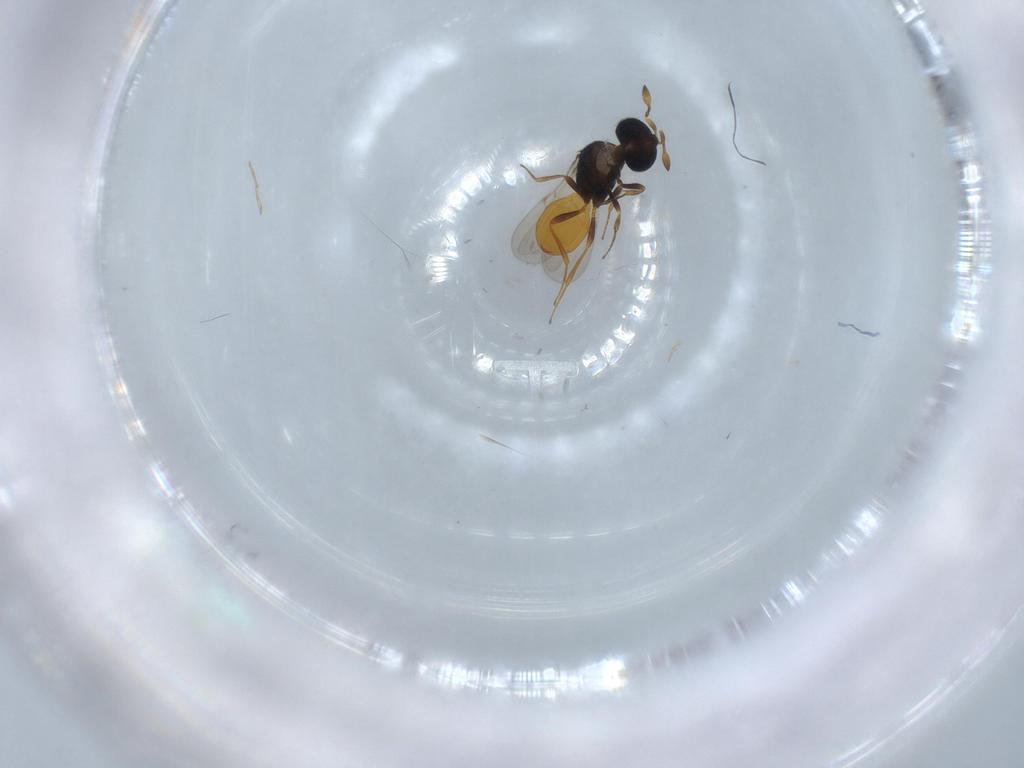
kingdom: Animalia
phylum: Arthropoda
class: Insecta
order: Hymenoptera
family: Scelionidae
